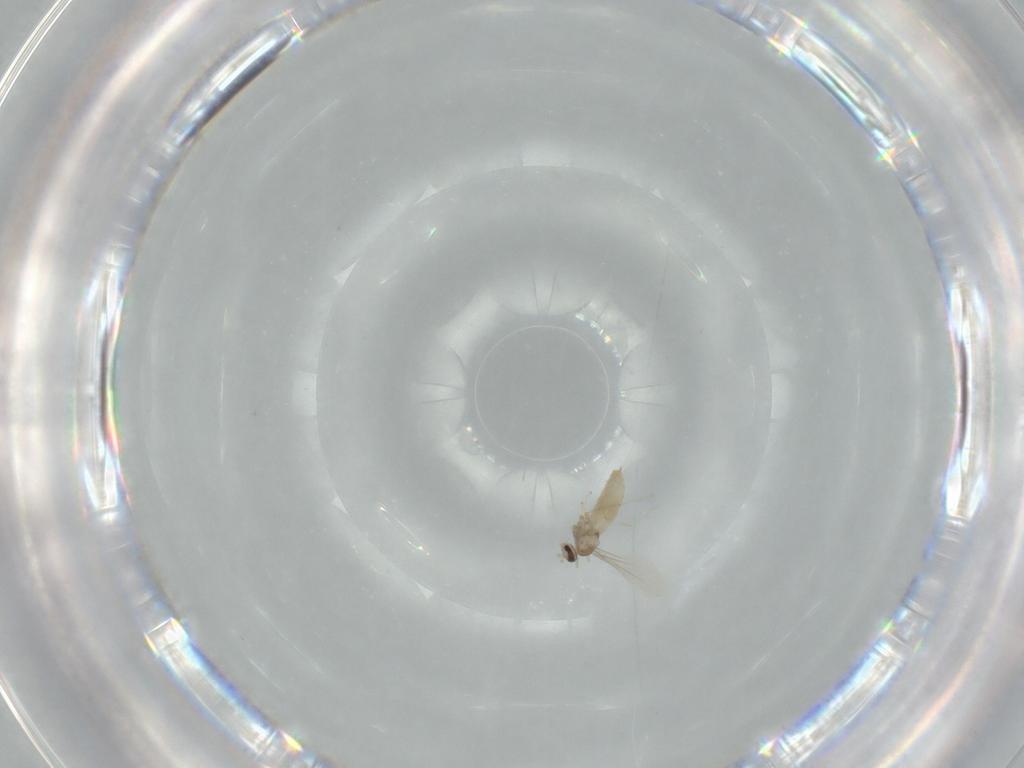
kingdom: Animalia
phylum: Arthropoda
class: Insecta
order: Diptera
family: Cecidomyiidae
